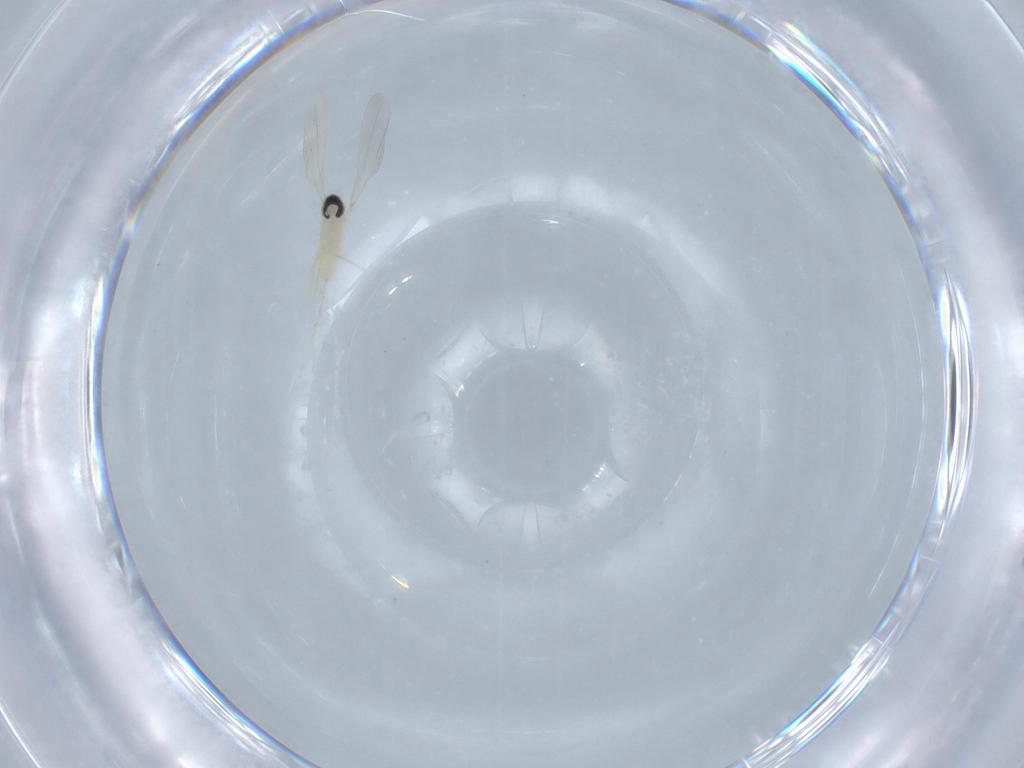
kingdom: Animalia
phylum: Arthropoda
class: Insecta
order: Diptera
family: Cecidomyiidae
